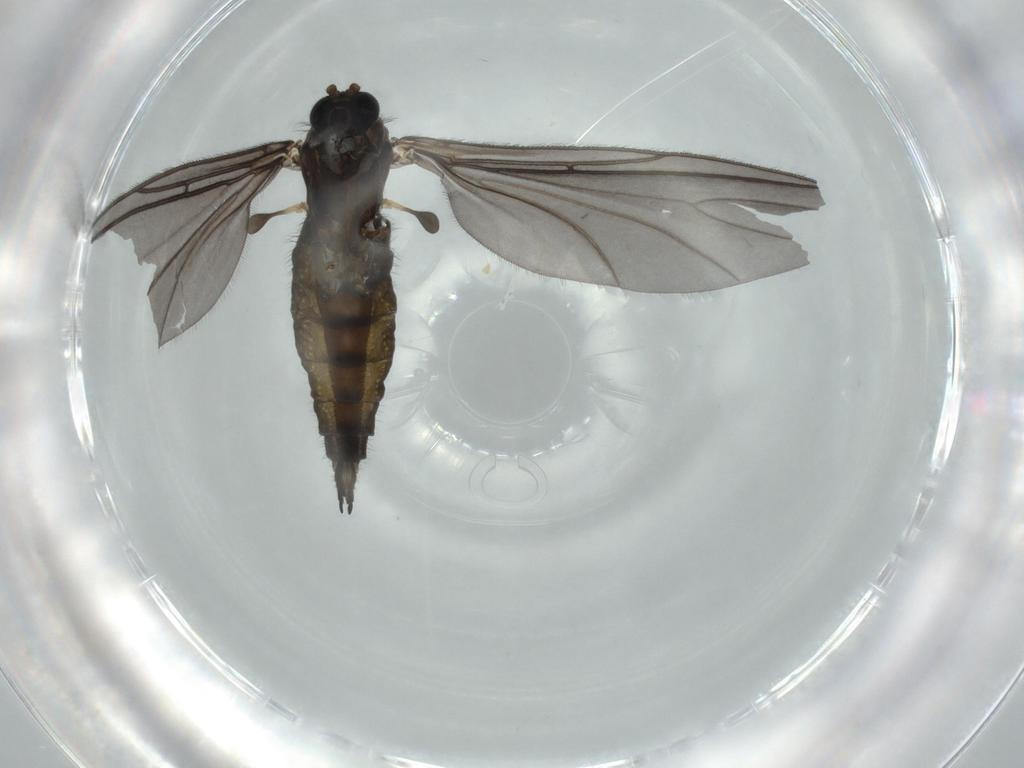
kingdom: Animalia
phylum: Arthropoda
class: Insecta
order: Diptera
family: Sciaridae
